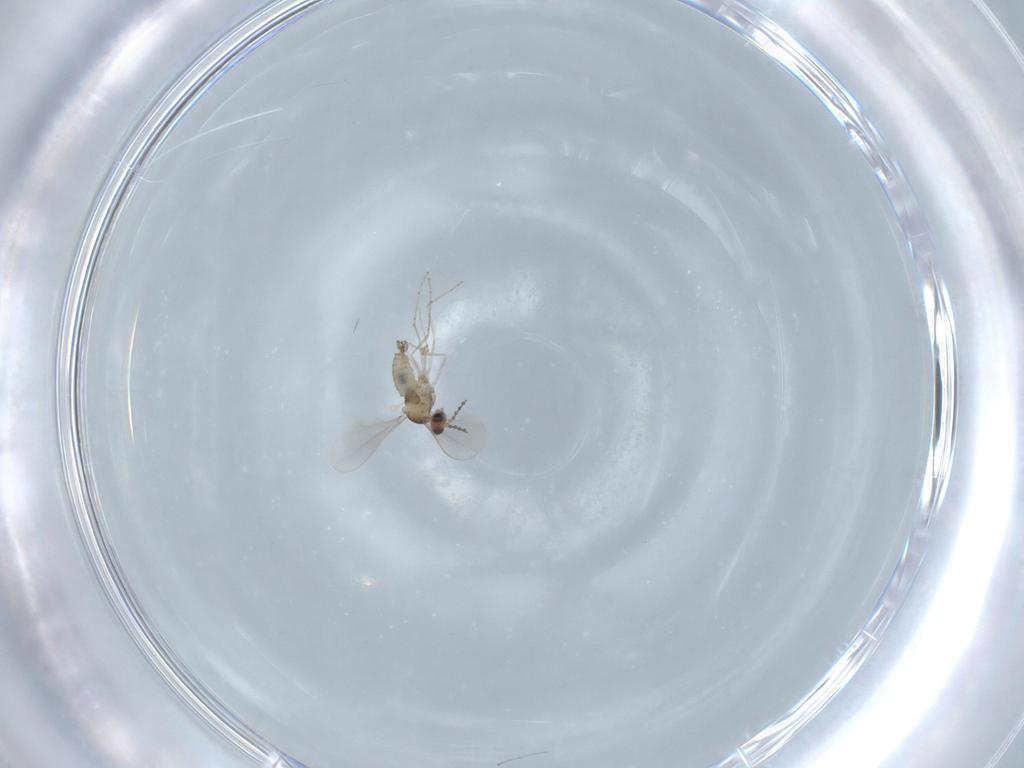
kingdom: Animalia
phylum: Arthropoda
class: Insecta
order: Diptera
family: Cecidomyiidae
